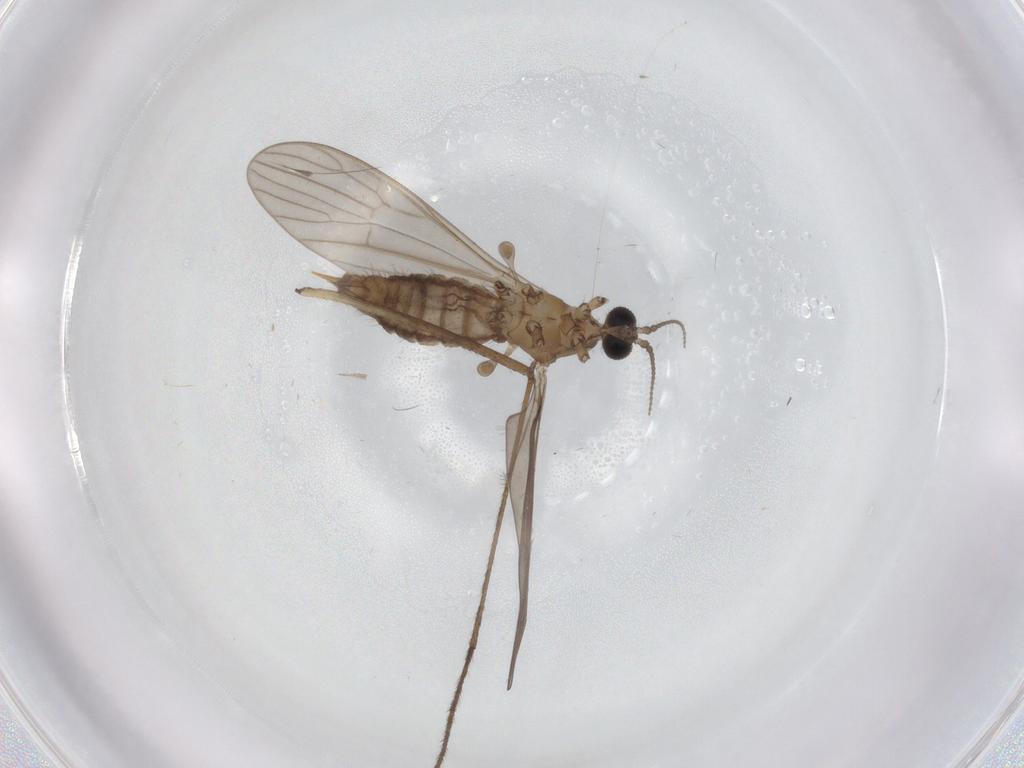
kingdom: Animalia
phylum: Arthropoda
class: Insecta
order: Diptera
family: Limoniidae
